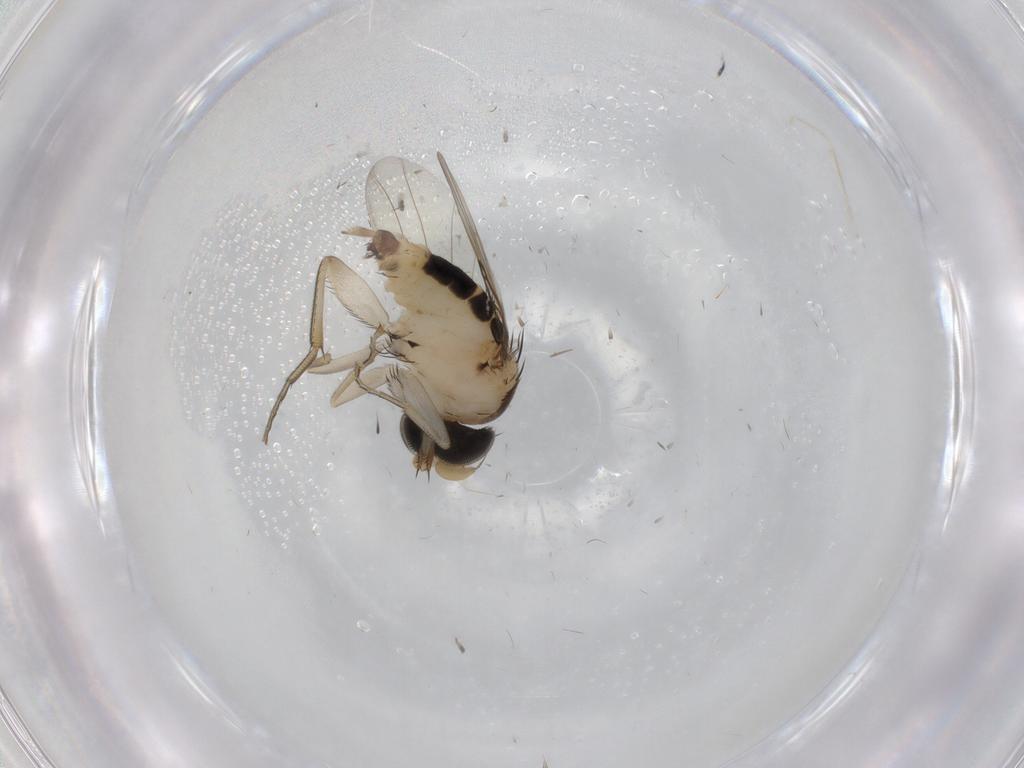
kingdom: Animalia
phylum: Arthropoda
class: Insecta
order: Diptera
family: Phoridae
